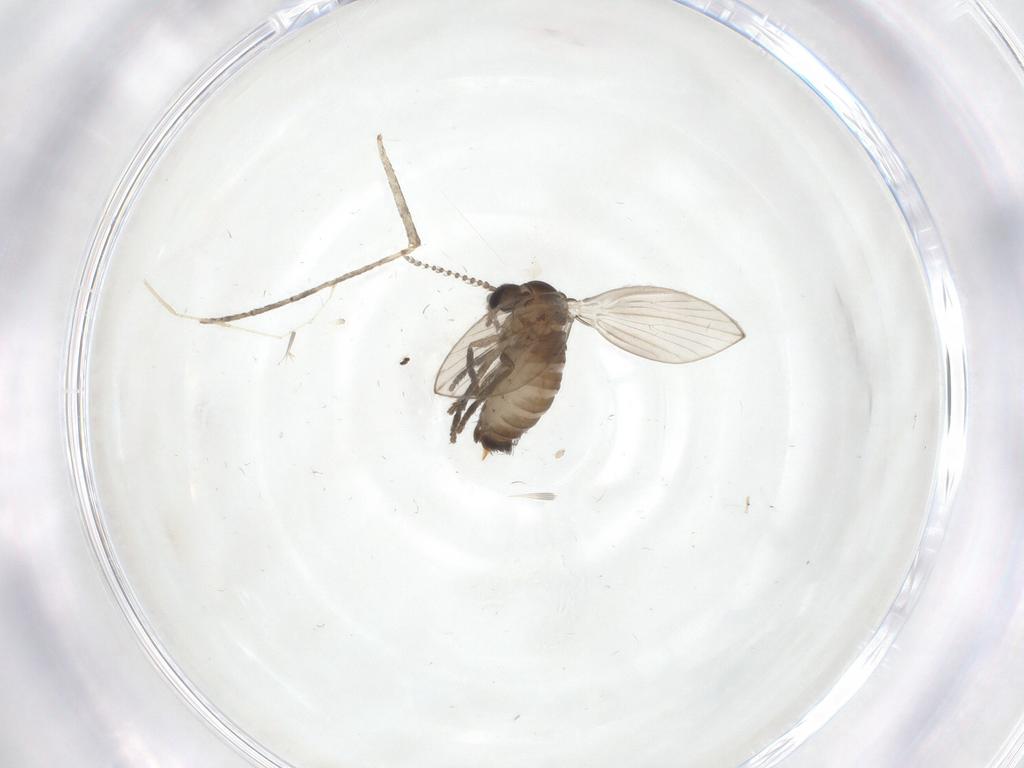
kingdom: Animalia
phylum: Arthropoda
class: Insecta
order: Diptera
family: Psychodidae
